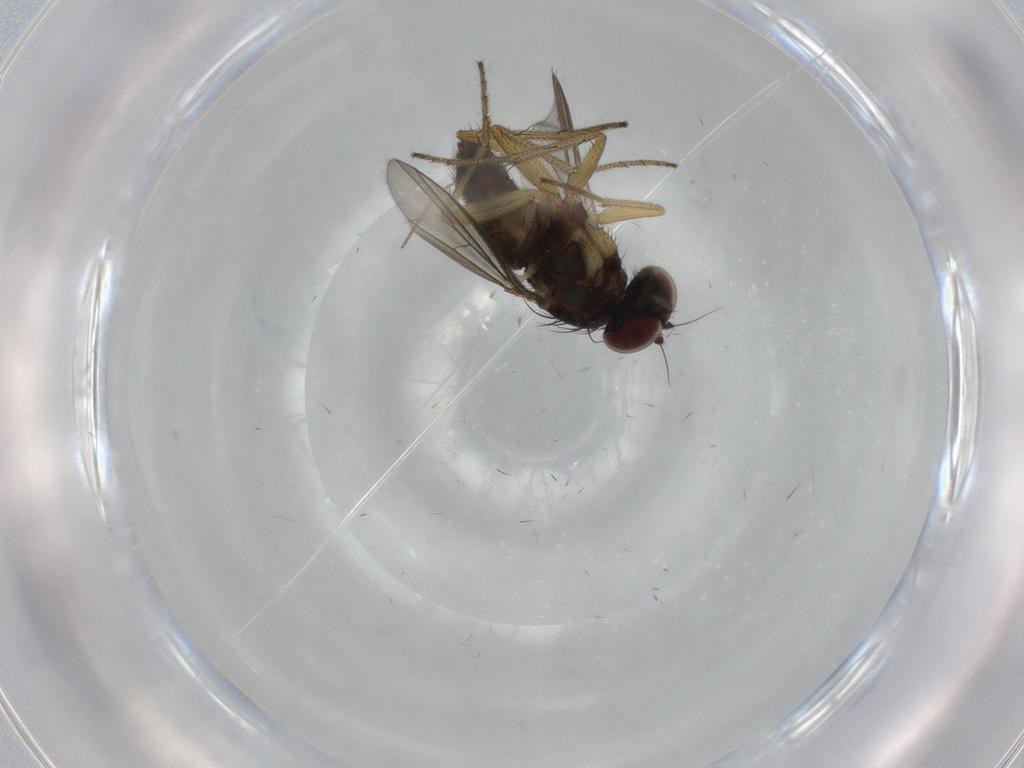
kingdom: Animalia
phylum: Arthropoda
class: Insecta
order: Diptera
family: Dolichopodidae
